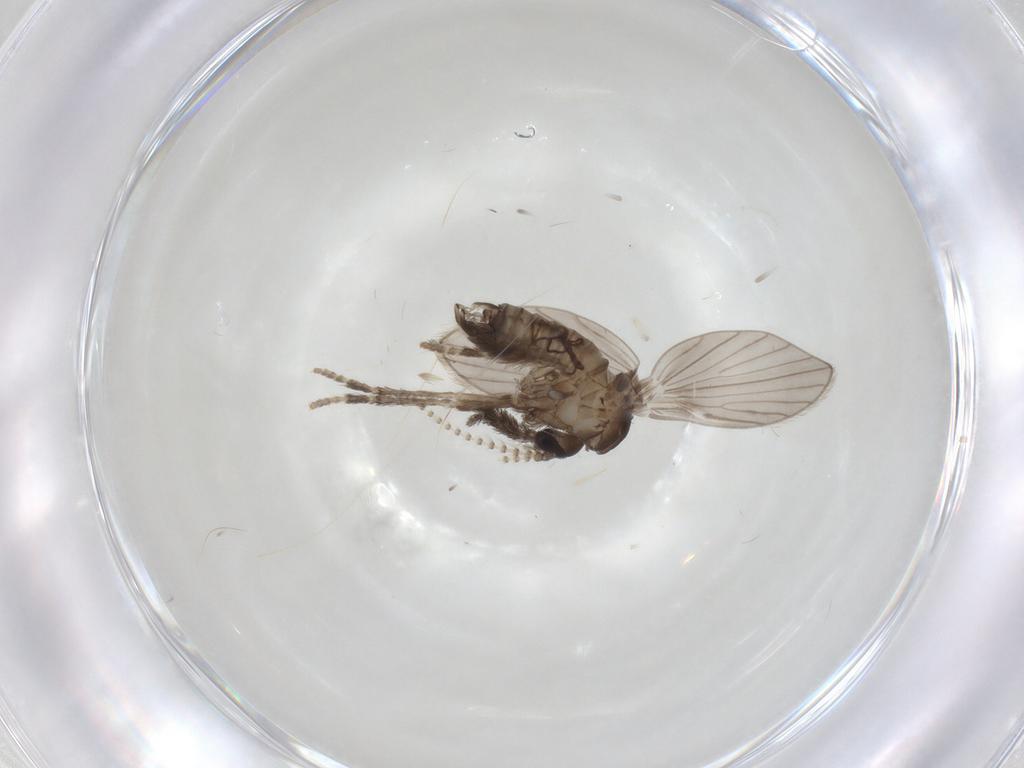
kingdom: Animalia
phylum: Arthropoda
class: Insecta
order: Diptera
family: Psychodidae
